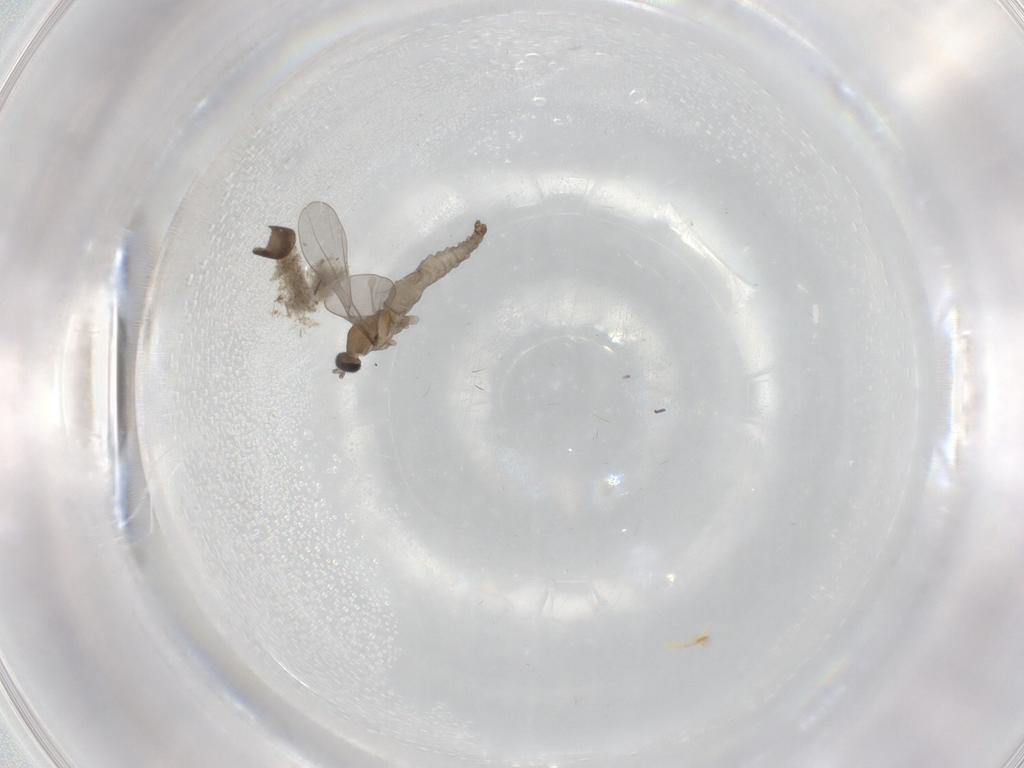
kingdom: Animalia
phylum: Arthropoda
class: Insecta
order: Diptera
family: Cecidomyiidae
